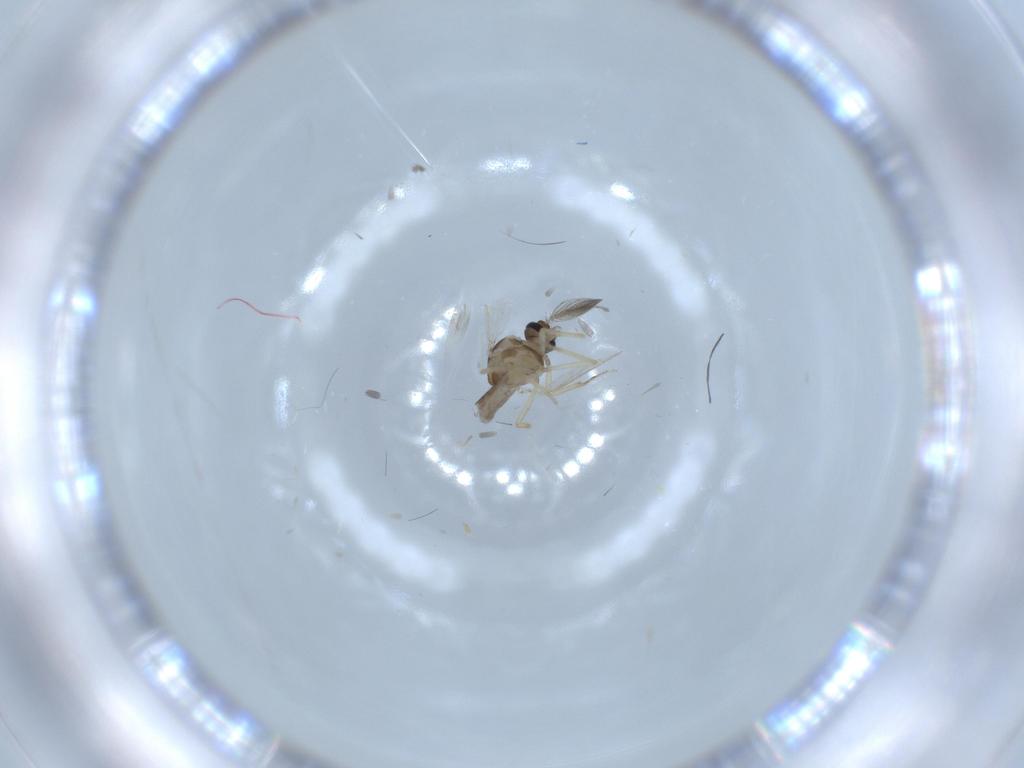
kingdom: Animalia
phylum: Arthropoda
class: Insecta
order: Diptera
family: Ceratopogonidae
